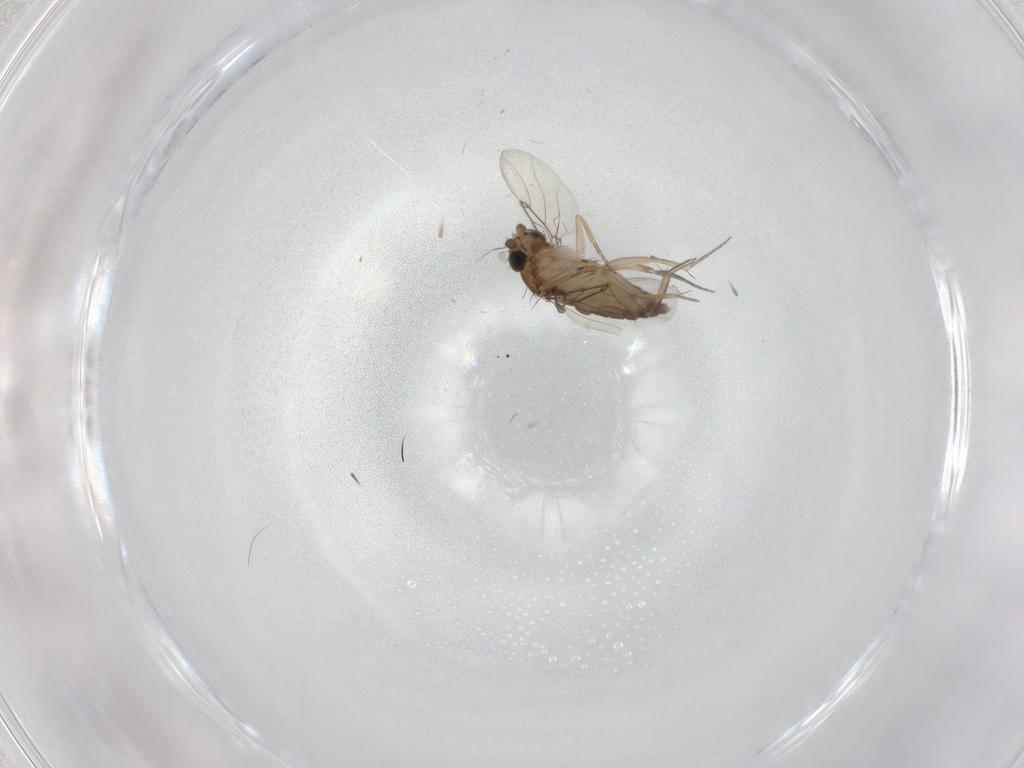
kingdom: Animalia
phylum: Arthropoda
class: Insecta
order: Diptera
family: Phoridae
